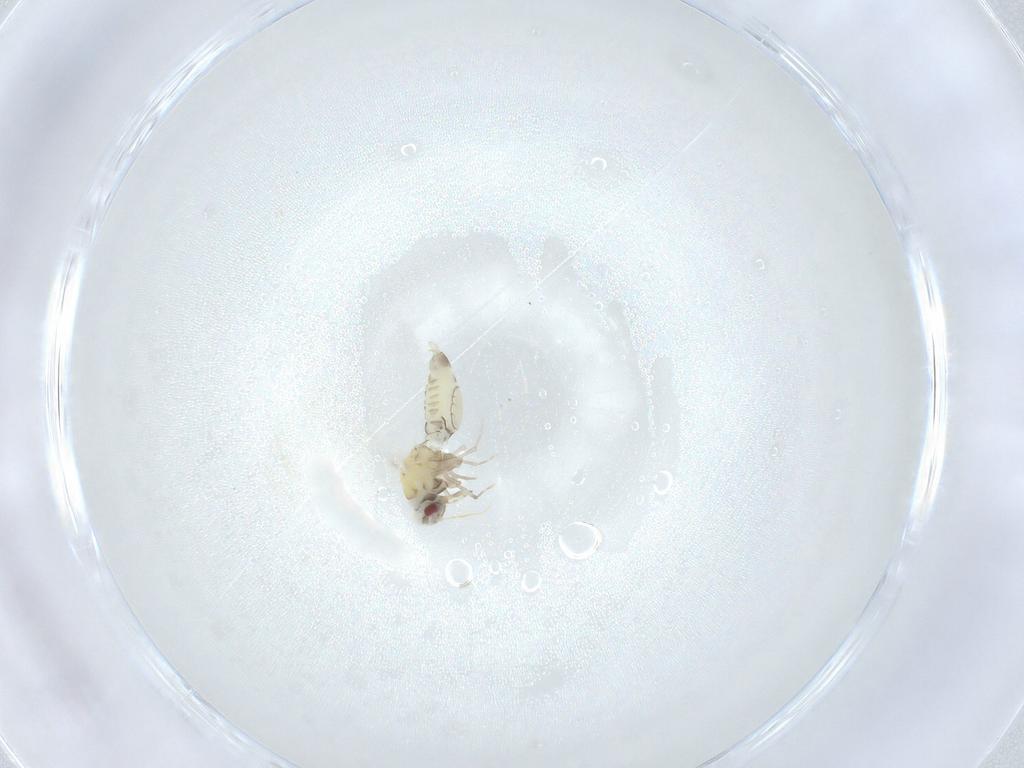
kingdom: Animalia
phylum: Arthropoda
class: Insecta
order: Hemiptera
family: Aleyrodidae
